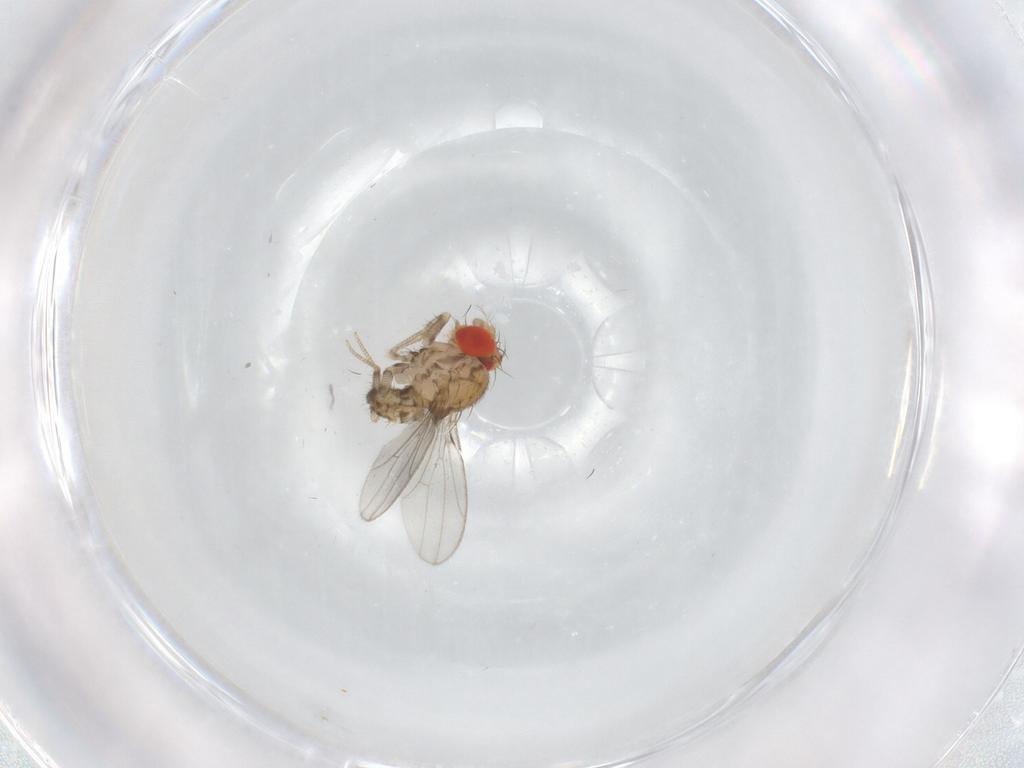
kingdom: Animalia
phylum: Arthropoda
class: Insecta
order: Diptera
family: Drosophilidae
